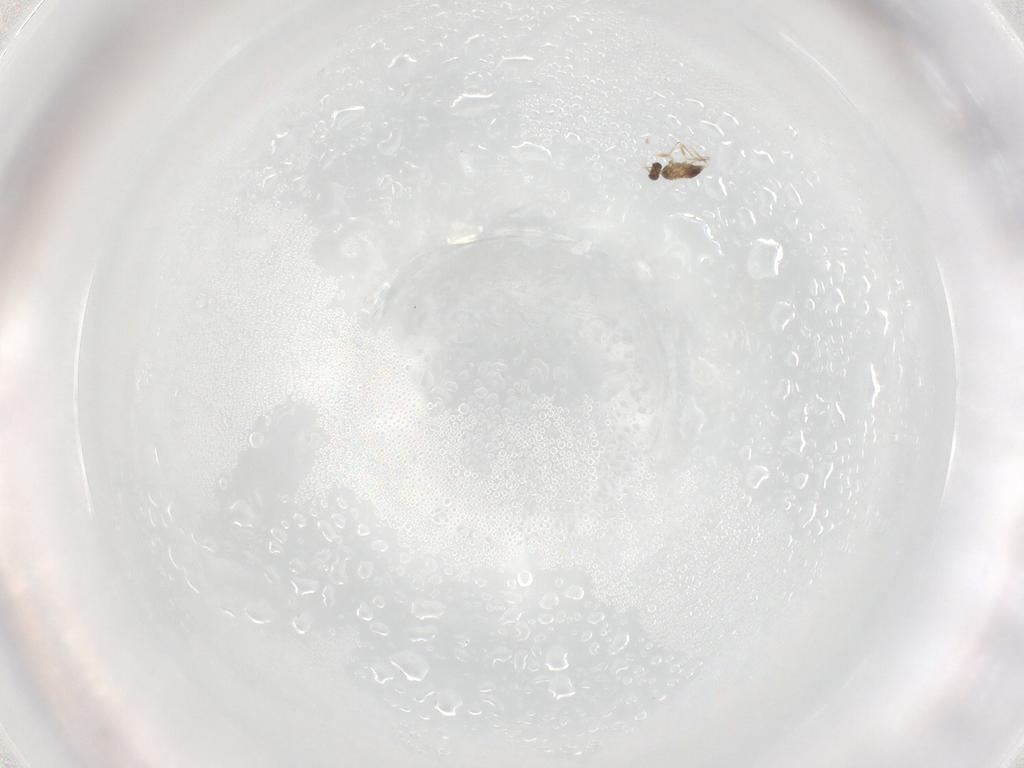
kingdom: Animalia
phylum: Arthropoda
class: Insecta
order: Hymenoptera
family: Mymaridae
